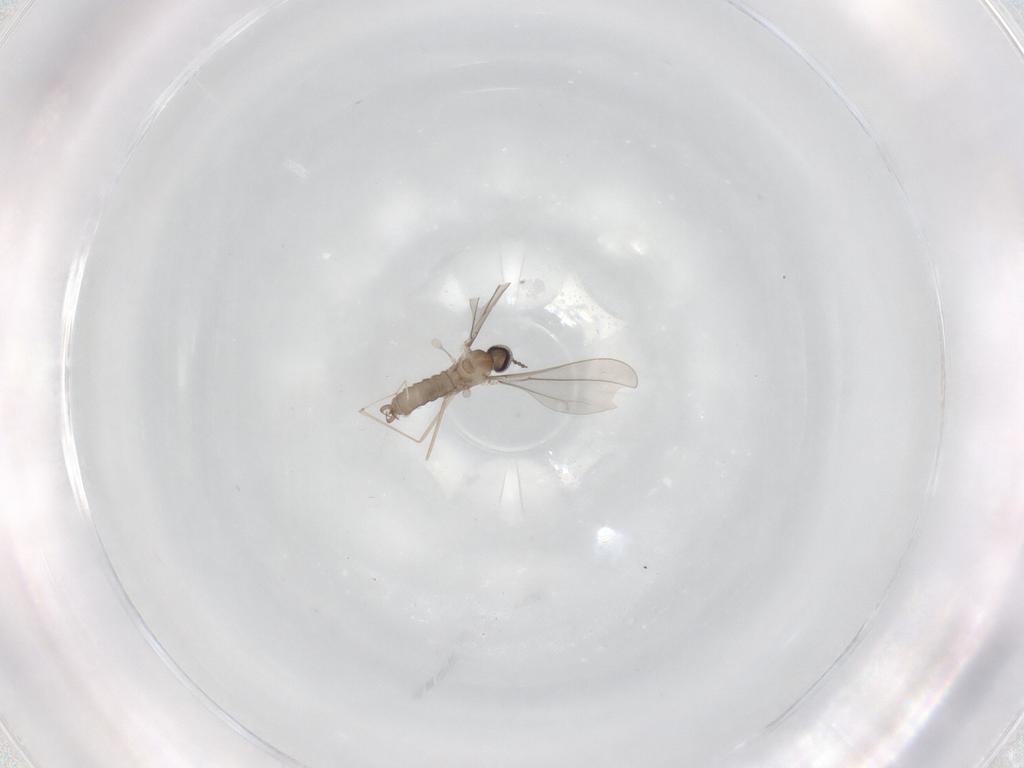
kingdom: Animalia
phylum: Arthropoda
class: Insecta
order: Diptera
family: Cecidomyiidae
